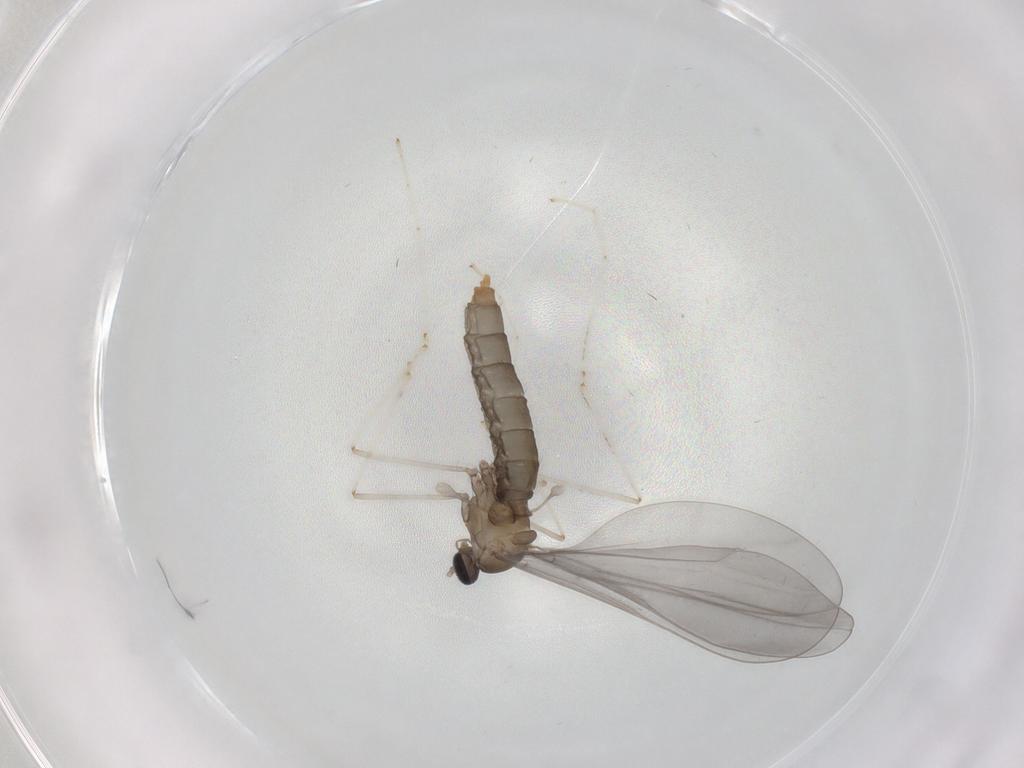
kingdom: Animalia
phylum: Arthropoda
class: Insecta
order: Diptera
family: Cecidomyiidae
